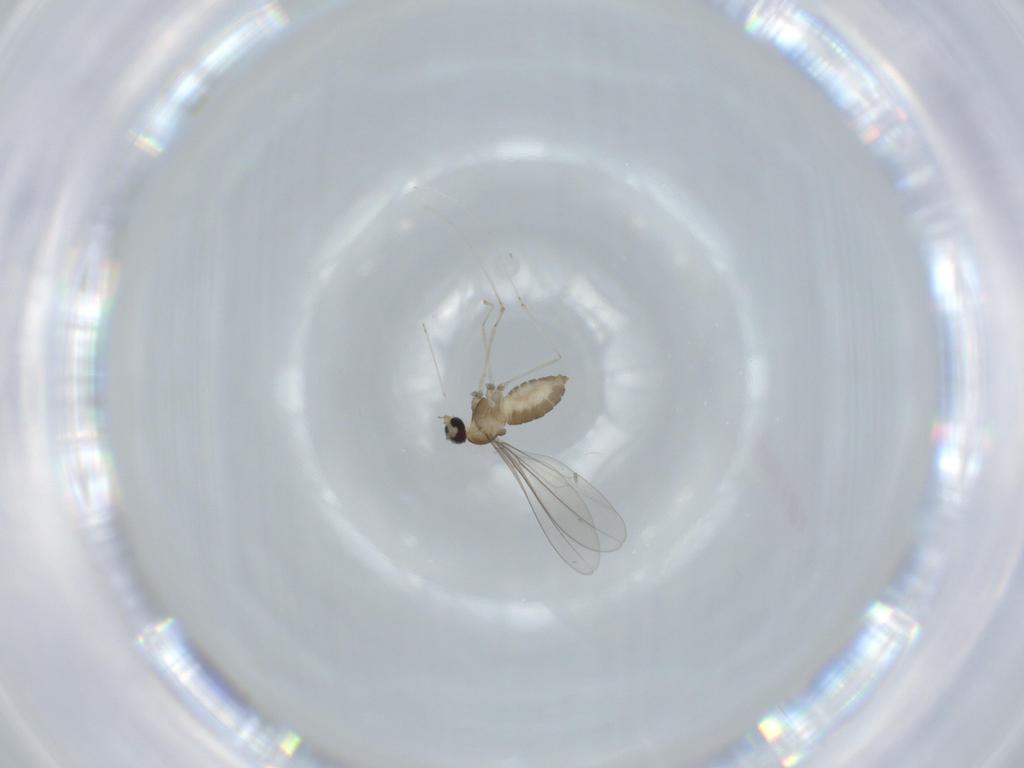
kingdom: Animalia
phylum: Arthropoda
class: Insecta
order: Diptera
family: Cecidomyiidae
